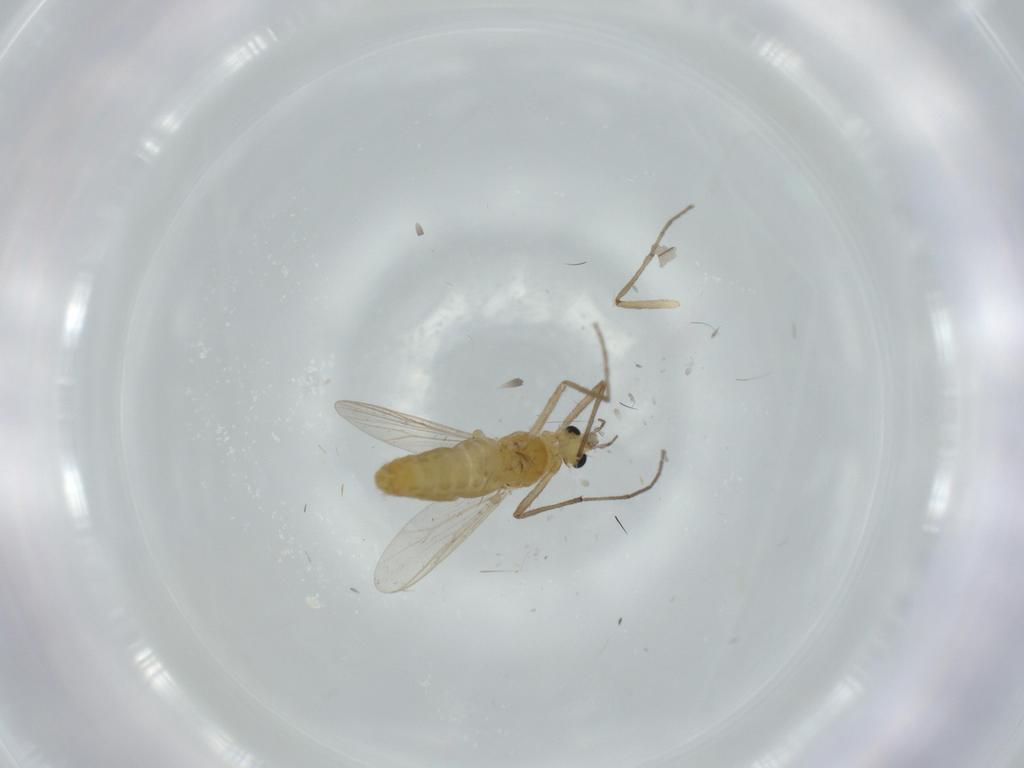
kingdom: Animalia
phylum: Arthropoda
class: Insecta
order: Diptera
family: Chironomidae
